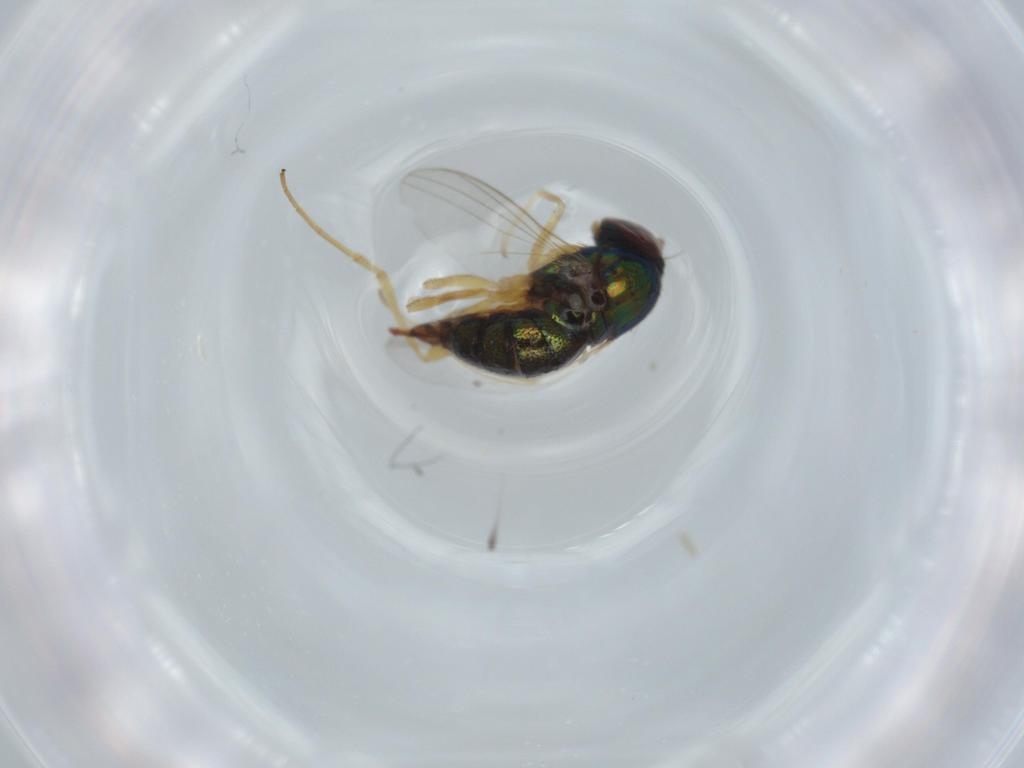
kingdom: Animalia
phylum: Arthropoda
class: Insecta
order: Diptera
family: Dolichopodidae
